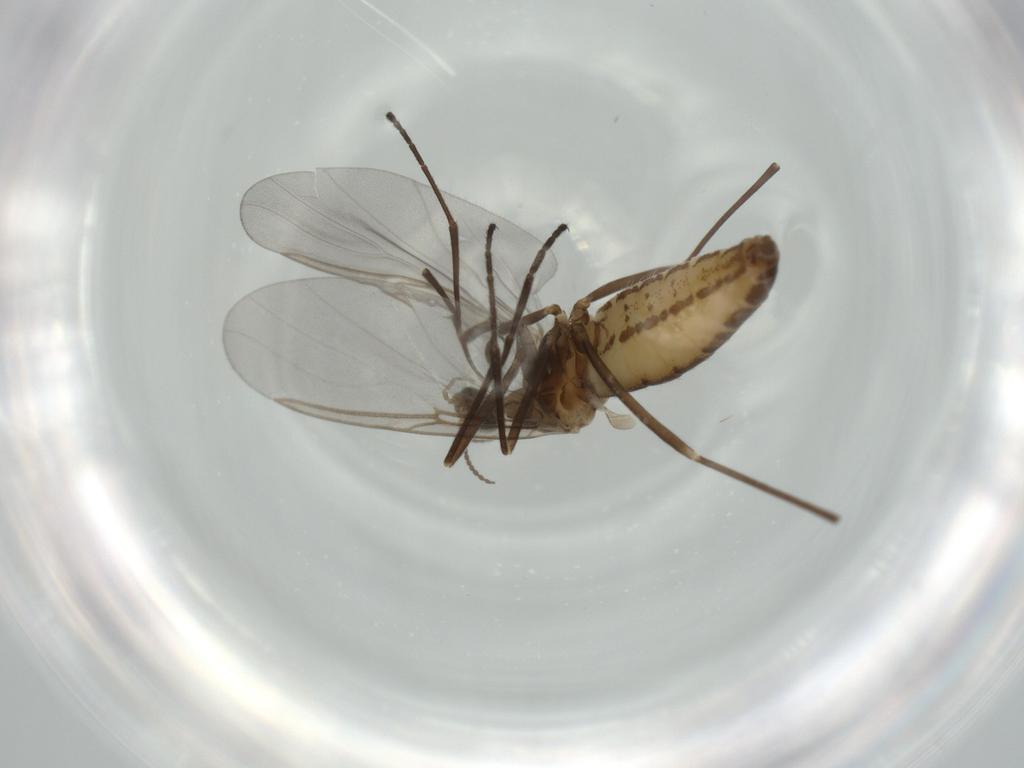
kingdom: Animalia
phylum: Arthropoda
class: Insecta
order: Diptera
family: Cecidomyiidae
